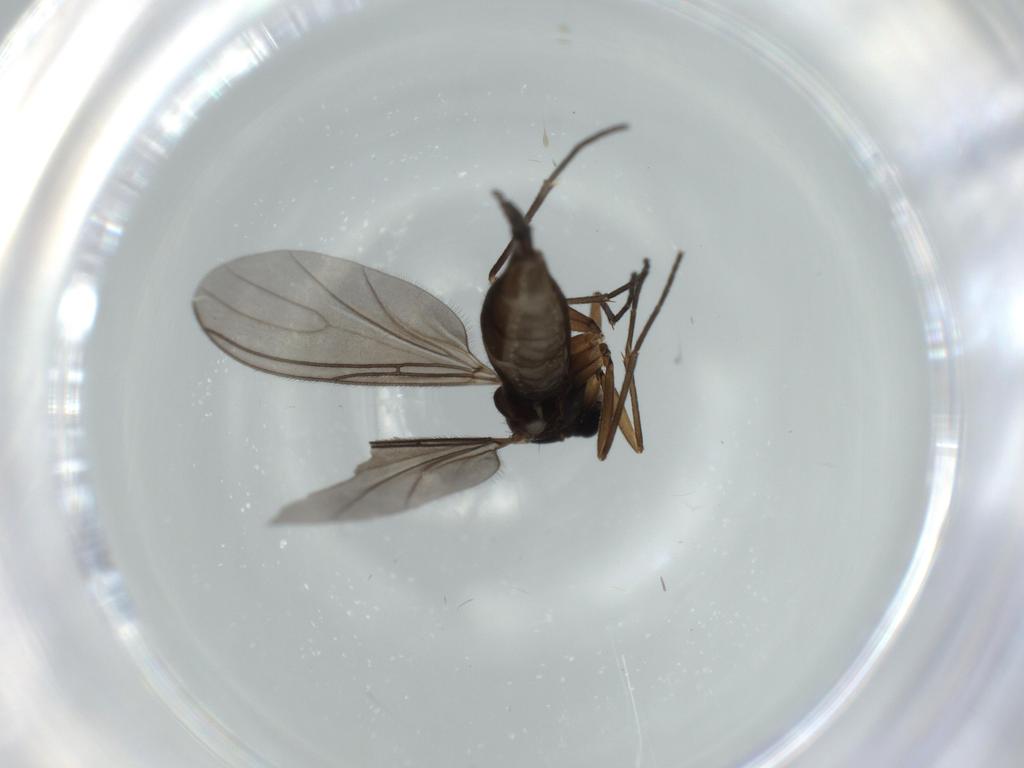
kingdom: Animalia
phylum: Arthropoda
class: Insecta
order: Diptera
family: Sciaridae
